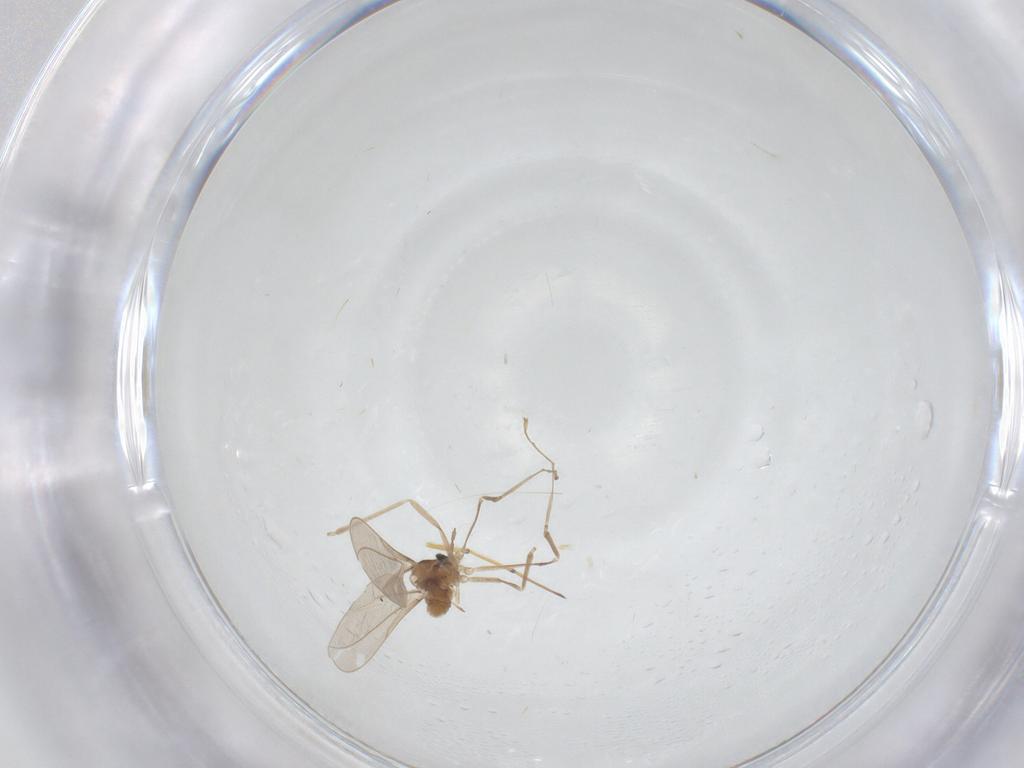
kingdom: Animalia
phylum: Arthropoda
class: Insecta
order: Diptera
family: Cecidomyiidae
